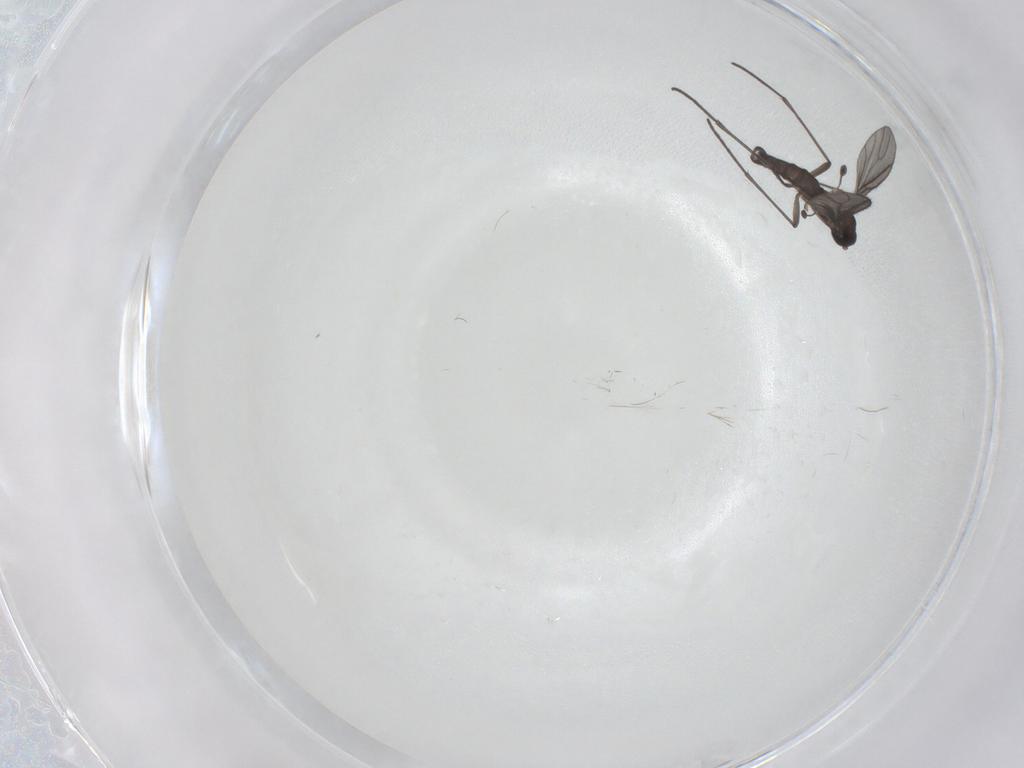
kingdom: Animalia
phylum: Arthropoda
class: Insecta
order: Diptera
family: Sciaridae
